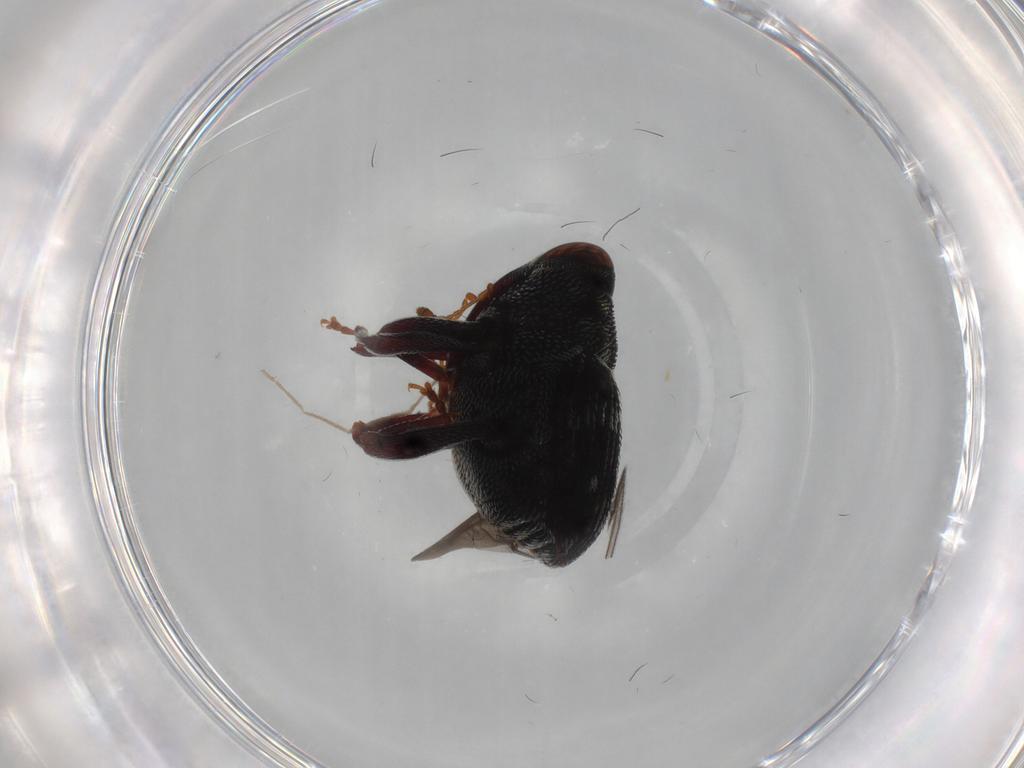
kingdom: Animalia
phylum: Arthropoda
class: Insecta
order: Coleoptera
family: Curculionidae
